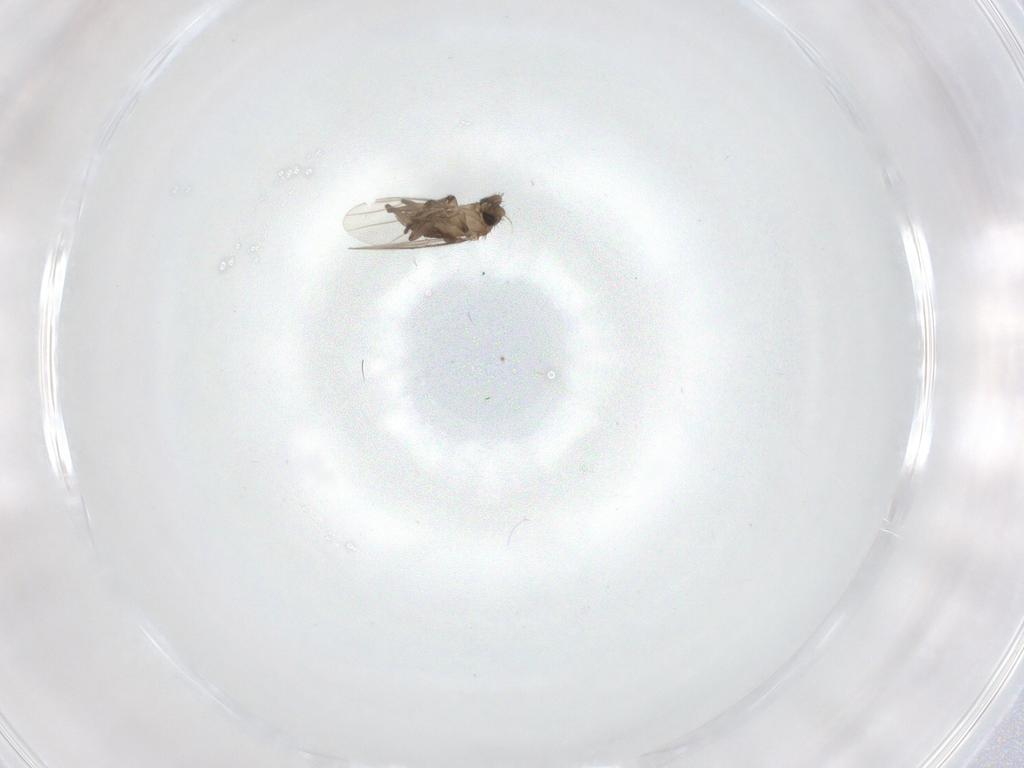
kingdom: Animalia
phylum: Arthropoda
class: Insecta
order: Diptera
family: Phoridae
